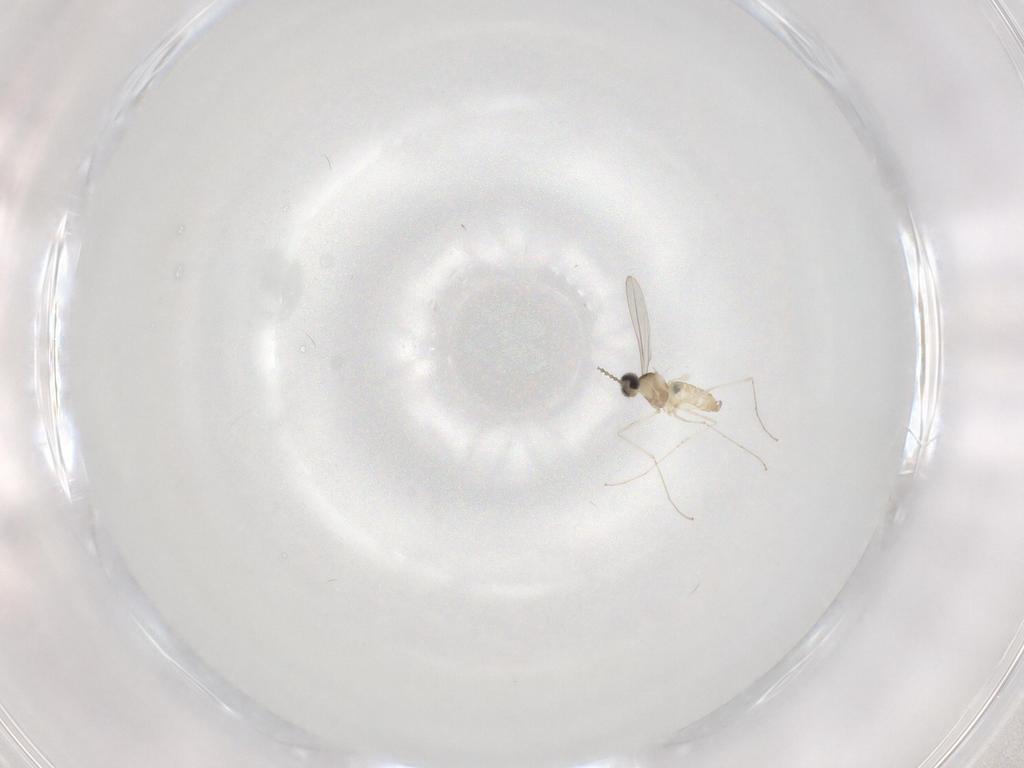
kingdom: Animalia
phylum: Arthropoda
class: Insecta
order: Diptera
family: Cecidomyiidae
